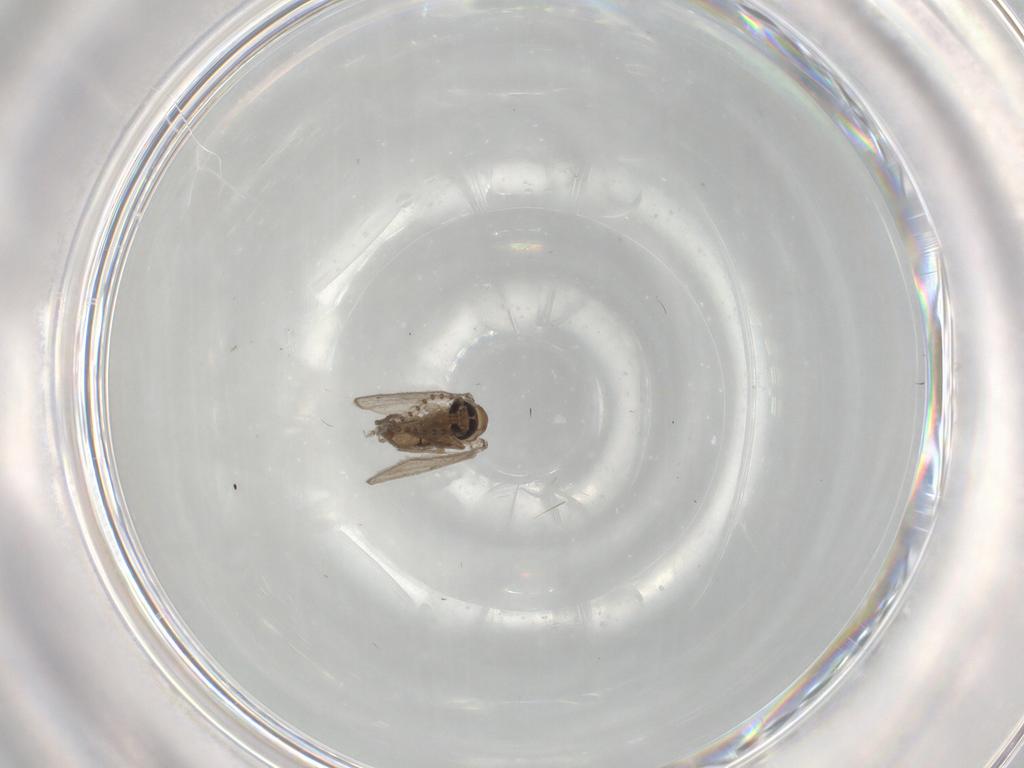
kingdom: Animalia
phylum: Arthropoda
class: Insecta
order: Diptera
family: Psychodidae
